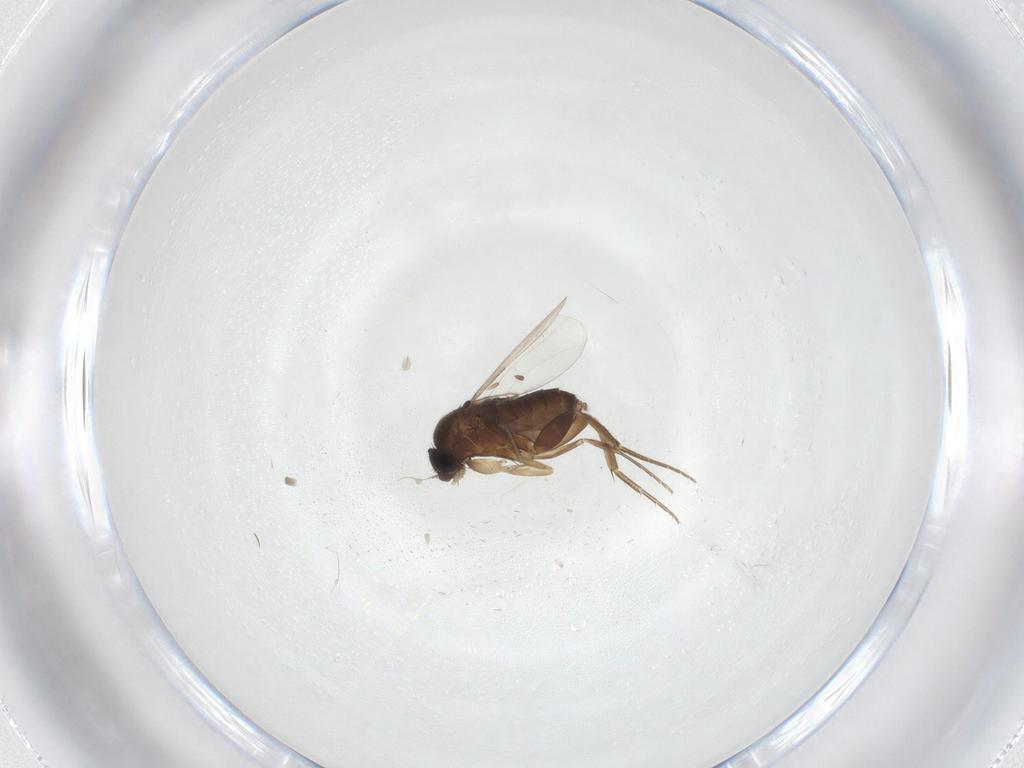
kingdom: Animalia
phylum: Arthropoda
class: Insecta
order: Diptera
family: Phoridae
